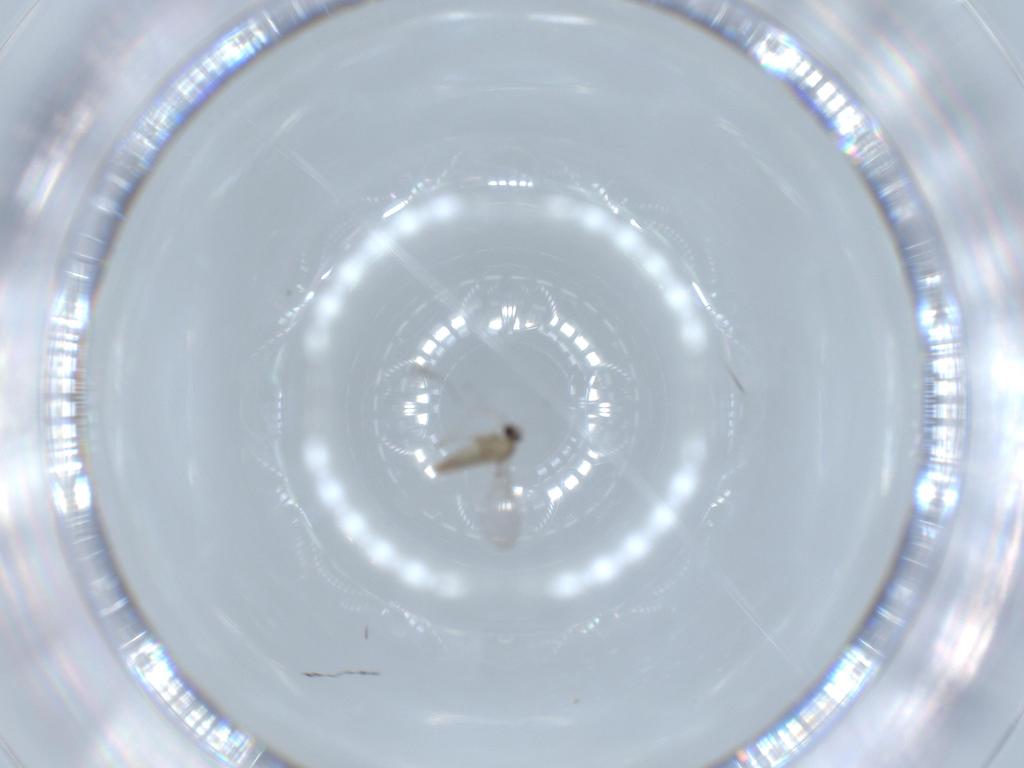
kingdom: Animalia
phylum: Arthropoda
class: Insecta
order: Diptera
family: Cecidomyiidae
